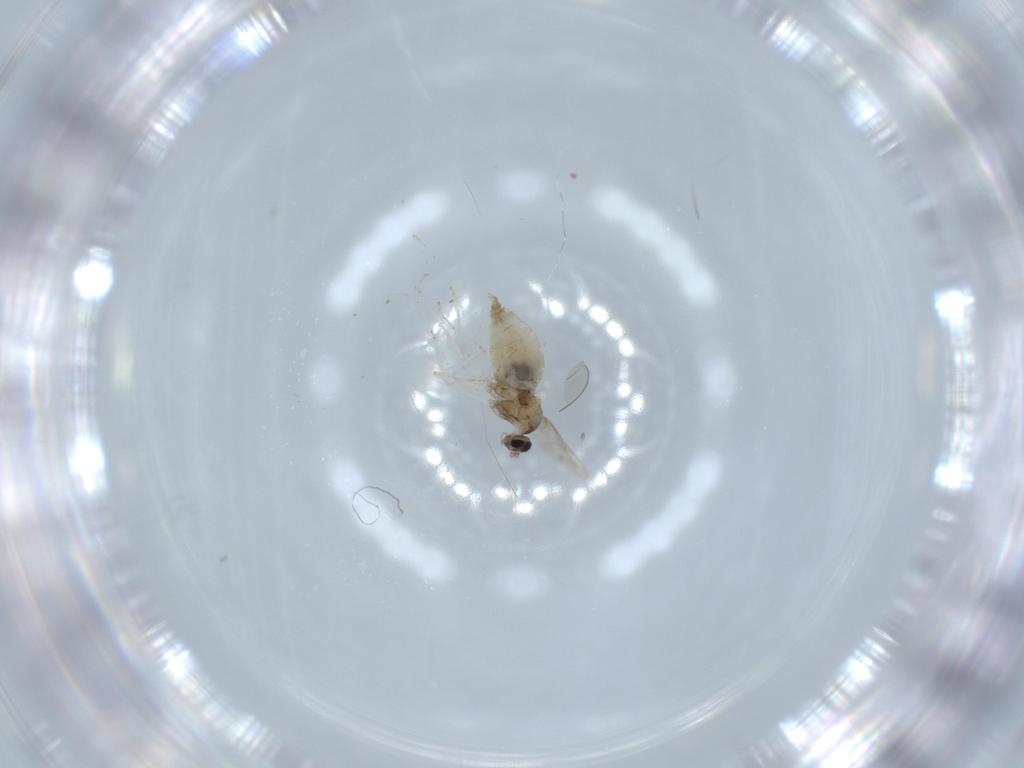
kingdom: Animalia
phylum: Arthropoda
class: Insecta
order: Diptera
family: Cecidomyiidae
